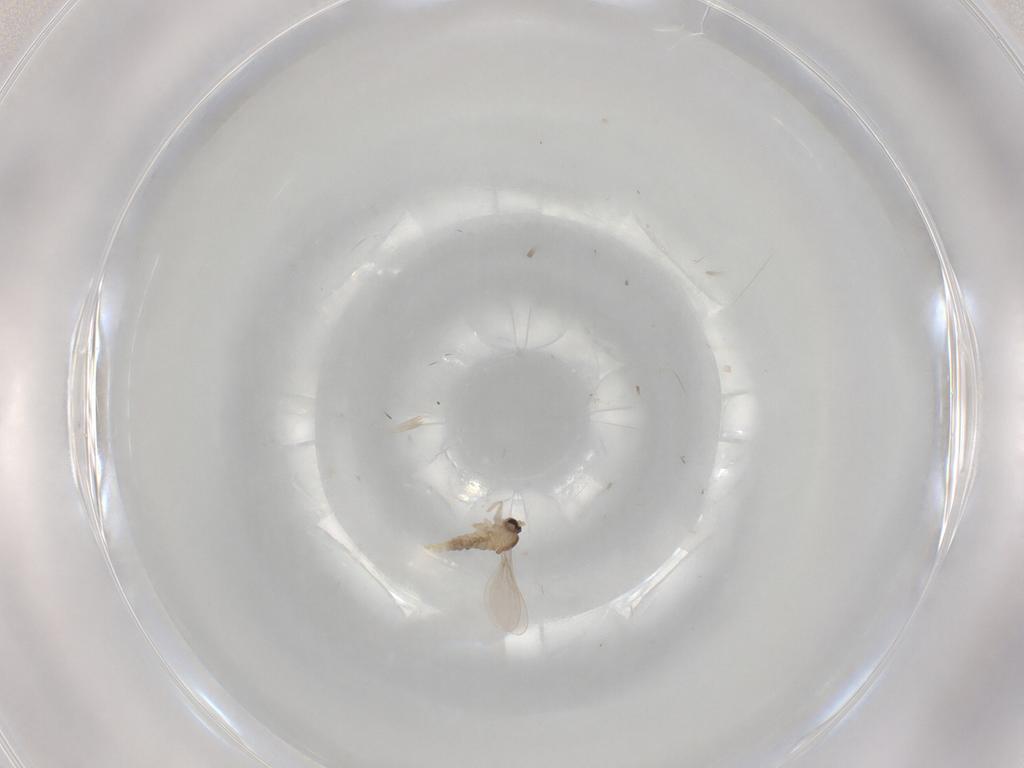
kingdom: Animalia
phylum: Arthropoda
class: Insecta
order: Diptera
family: Cecidomyiidae
